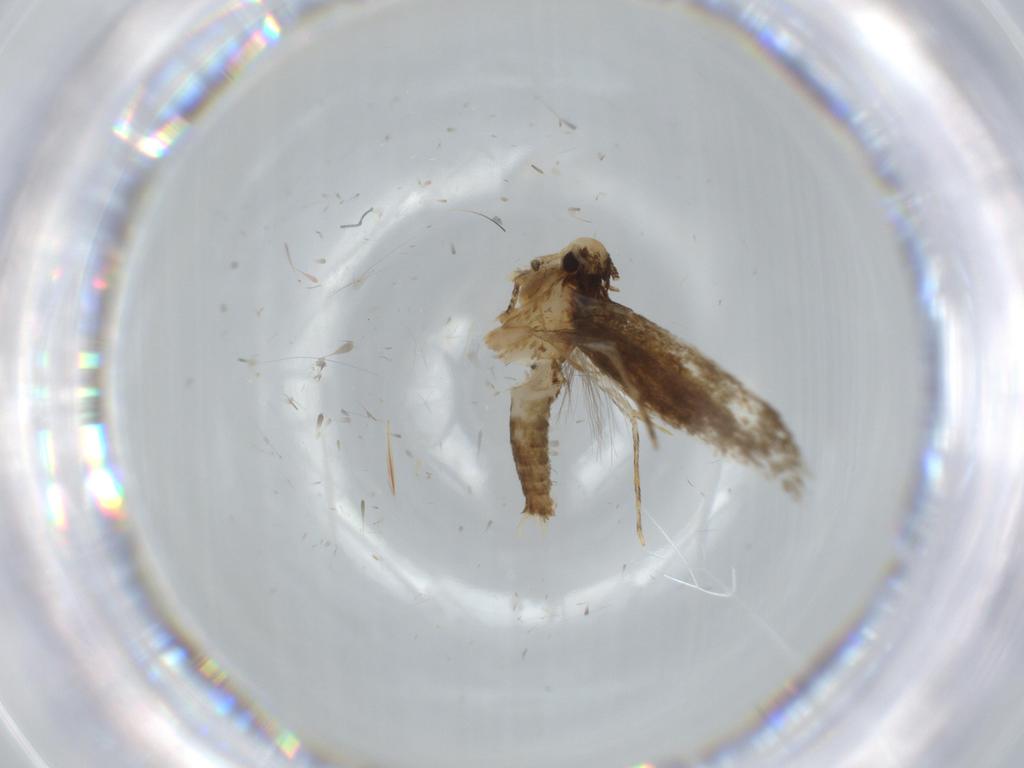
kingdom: Animalia
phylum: Arthropoda
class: Insecta
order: Lepidoptera
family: Tineidae
